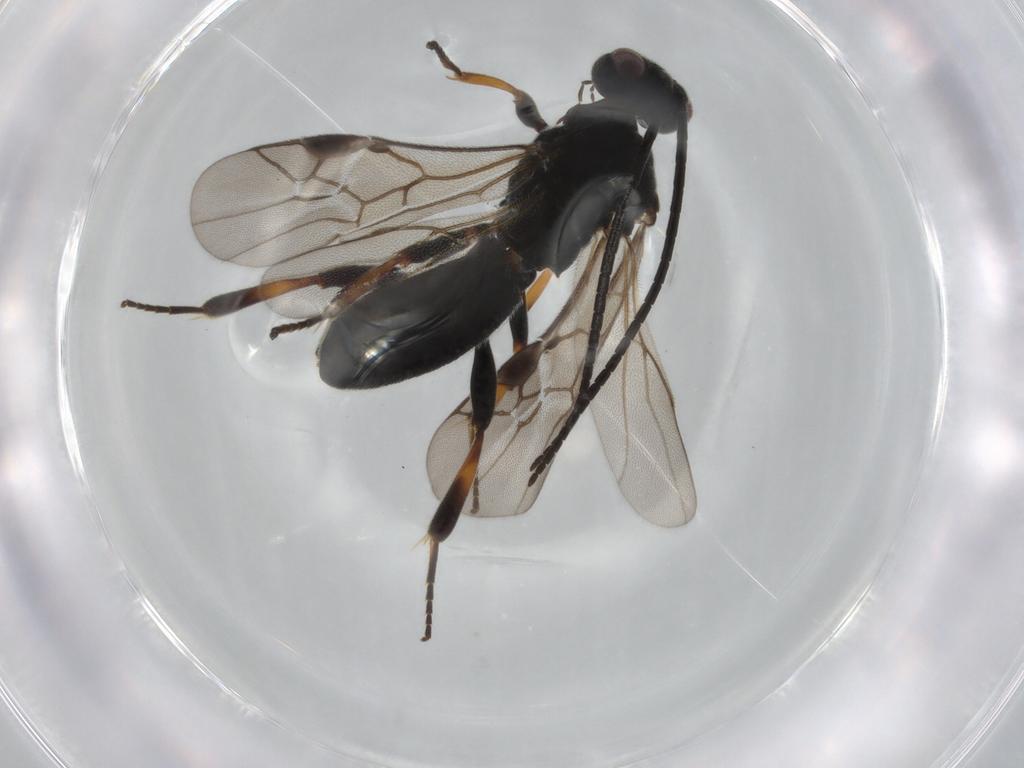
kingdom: Animalia
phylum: Arthropoda
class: Insecta
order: Hymenoptera
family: Braconidae
